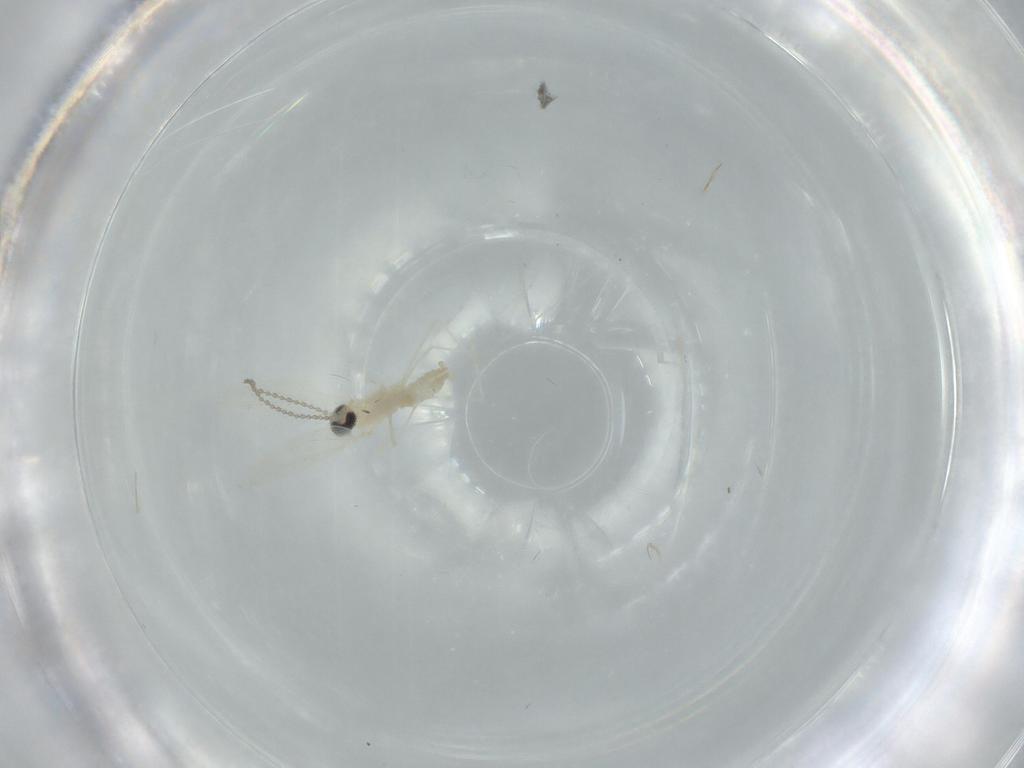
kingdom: Animalia
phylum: Arthropoda
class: Insecta
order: Diptera
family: Cecidomyiidae
